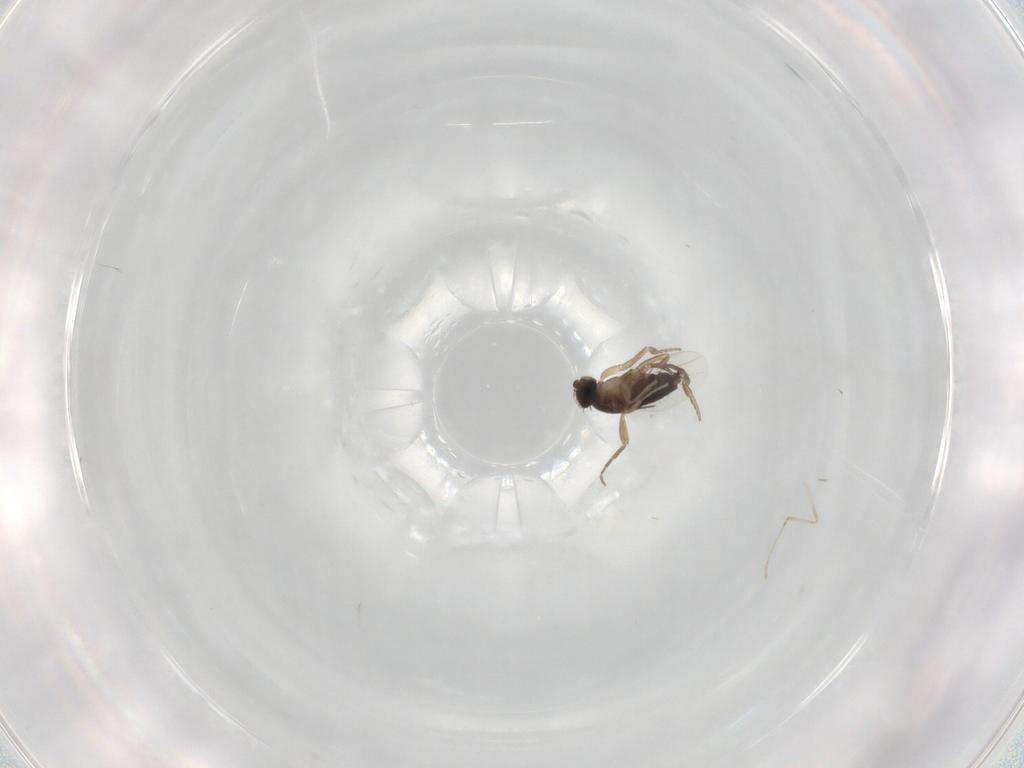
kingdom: Animalia
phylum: Arthropoda
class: Insecta
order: Diptera
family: Phoridae
